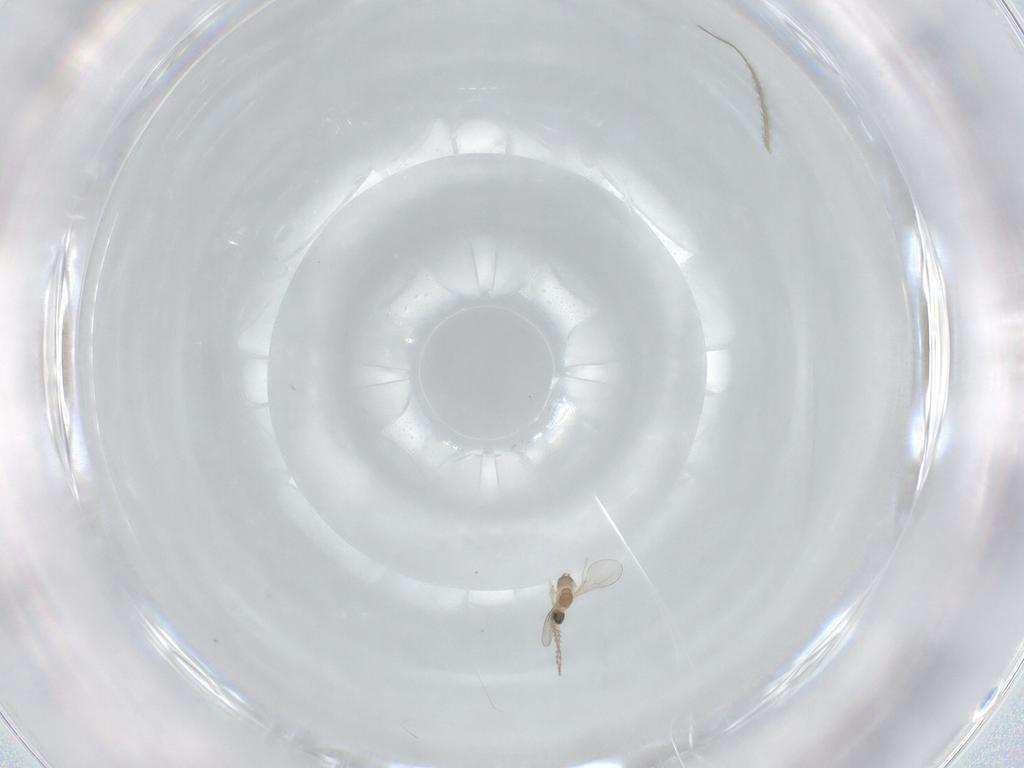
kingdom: Animalia
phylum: Arthropoda
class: Insecta
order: Diptera
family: Cecidomyiidae
